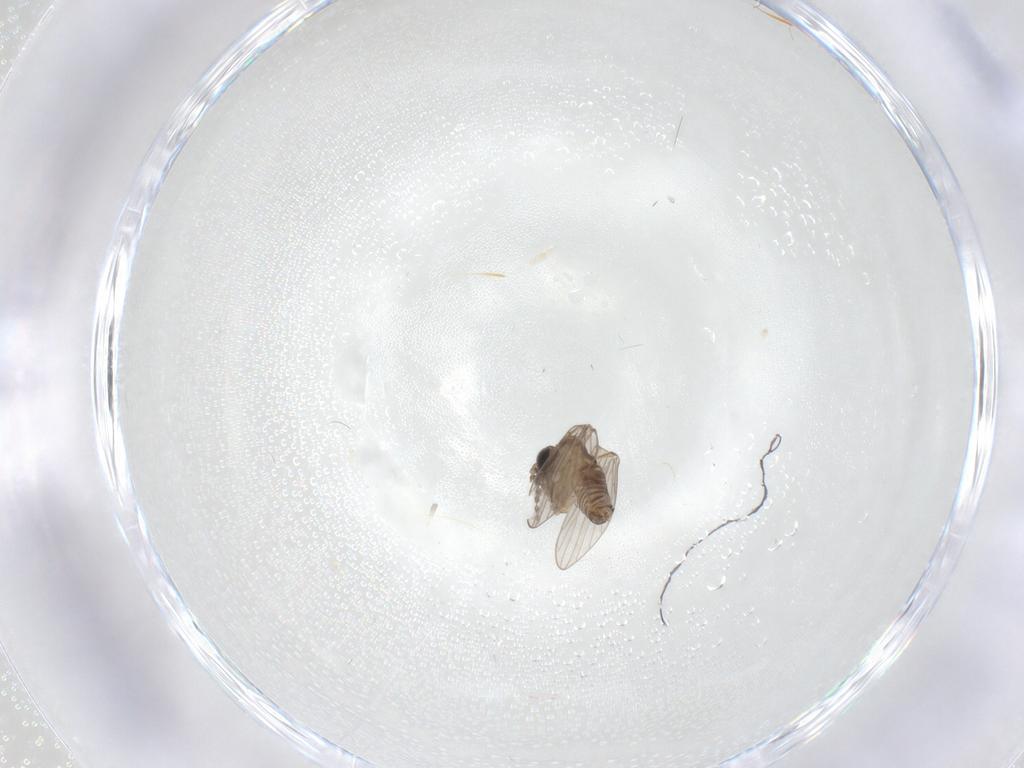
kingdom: Animalia
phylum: Arthropoda
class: Insecta
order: Diptera
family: Psychodidae
